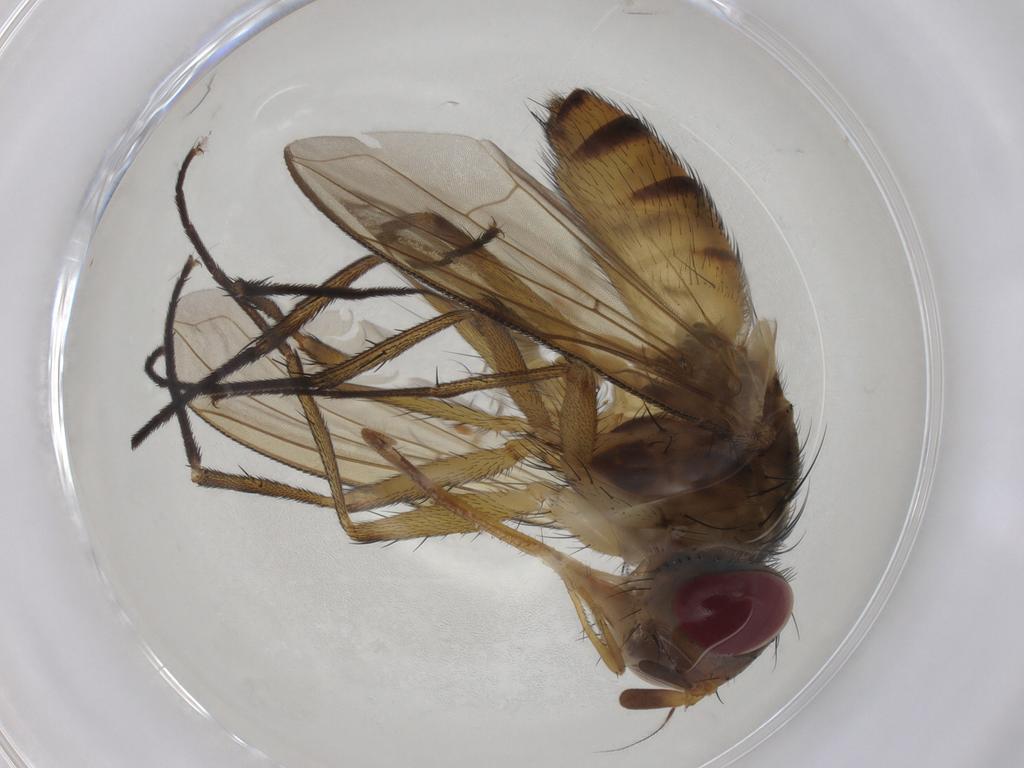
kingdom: Animalia
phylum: Arthropoda
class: Insecta
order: Diptera
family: Tachinidae
